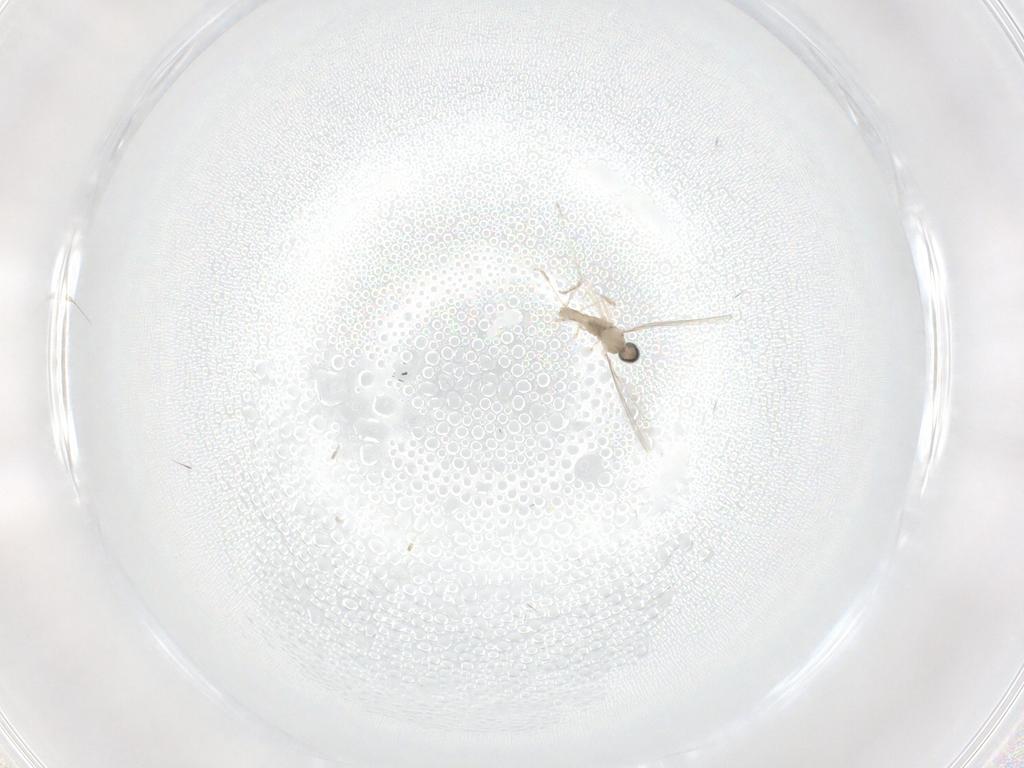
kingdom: Animalia
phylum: Arthropoda
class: Insecta
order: Diptera
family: Cecidomyiidae
